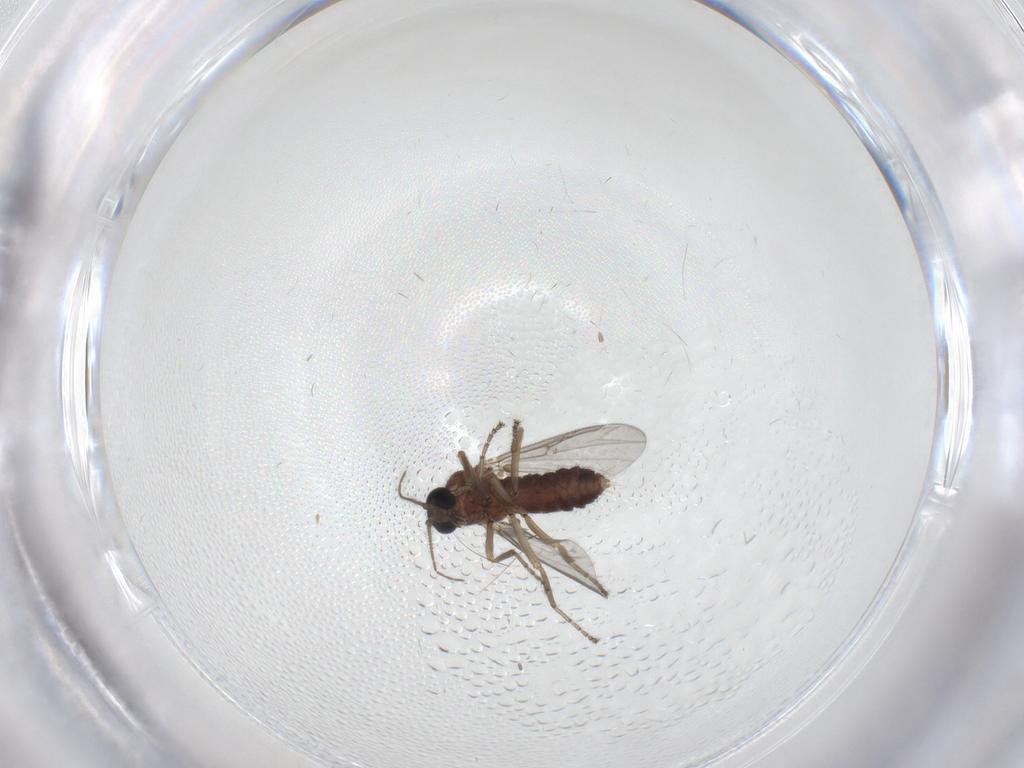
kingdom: Animalia
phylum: Arthropoda
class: Insecta
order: Diptera
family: Ceratopogonidae
